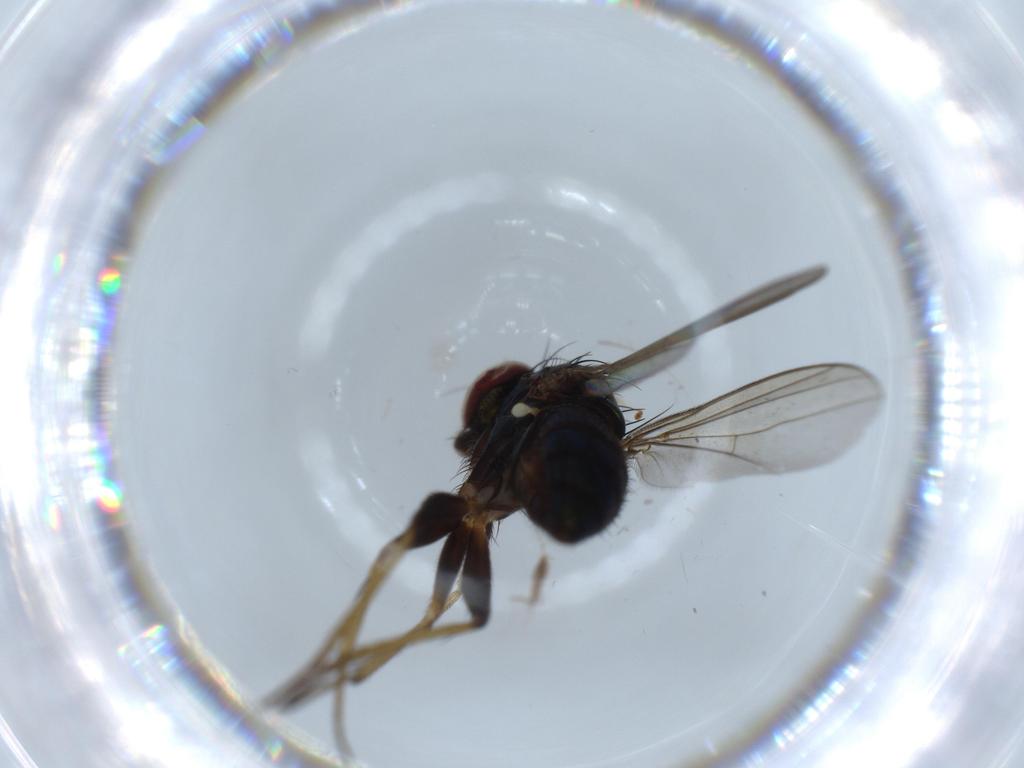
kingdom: Animalia
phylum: Arthropoda
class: Insecta
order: Diptera
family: Dolichopodidae
